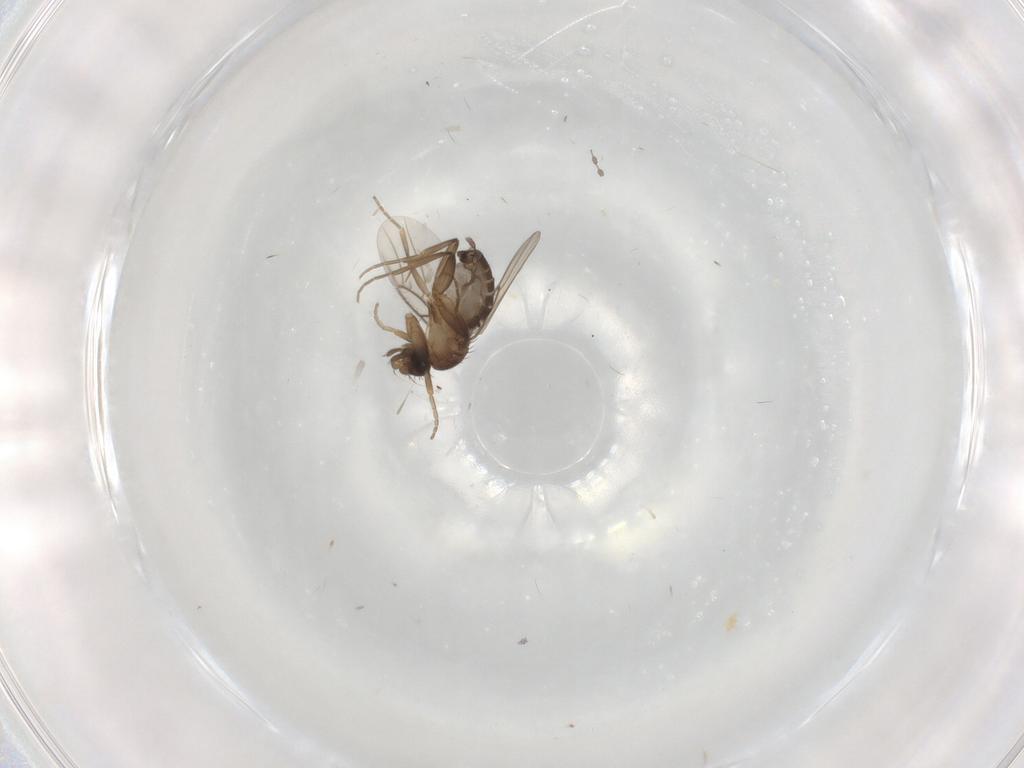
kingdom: Animalia
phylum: Arthropoda
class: Insecta
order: Diptera
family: Phoridae
